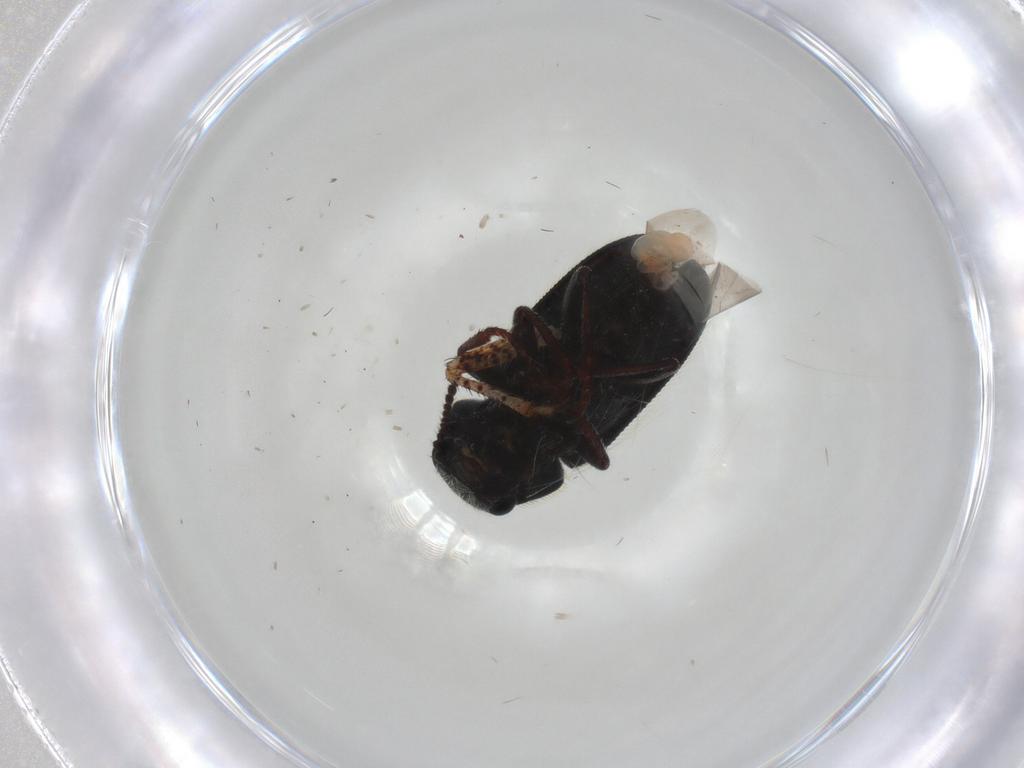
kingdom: Animalia
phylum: Arthropoda
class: Insecta
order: Coleoptera
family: Melyridae
